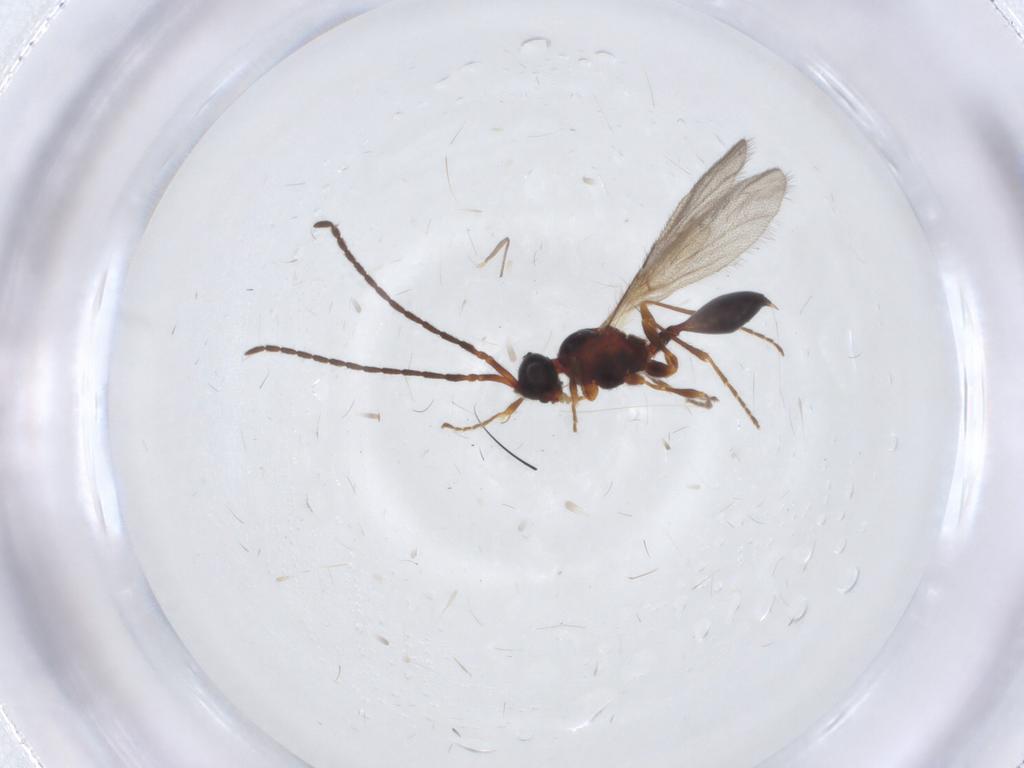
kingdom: Animalia
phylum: Arthropoda
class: Insecta
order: Hymenoptera
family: Diapriidae
